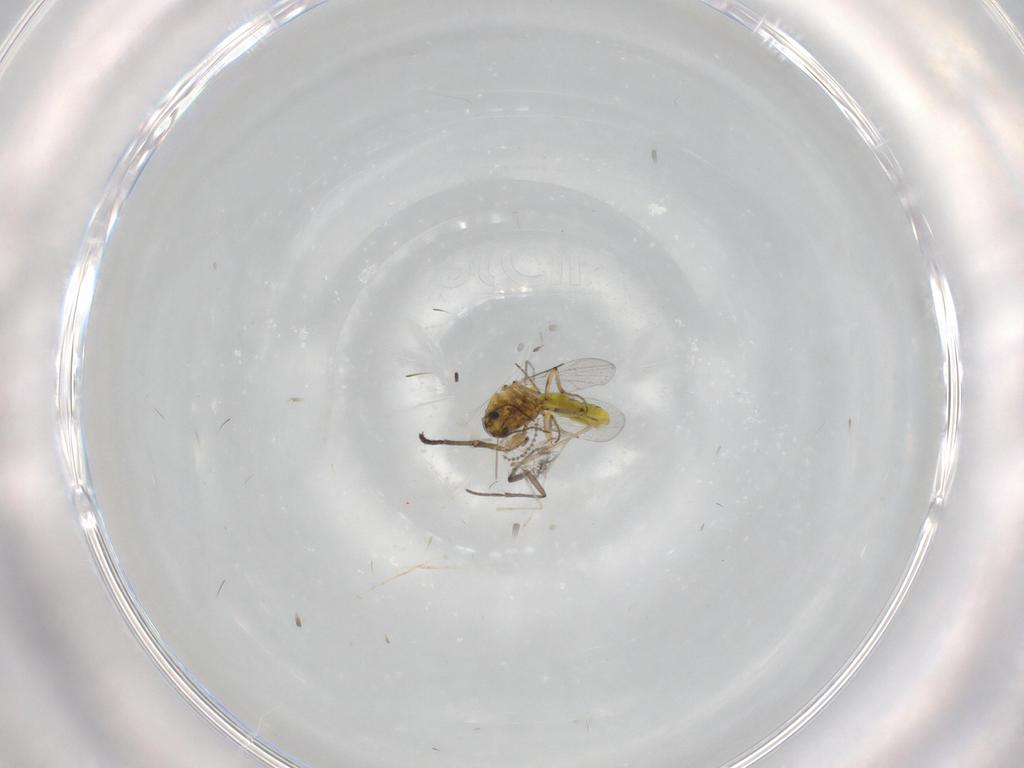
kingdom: Animalia
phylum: Arthropoda
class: Insecta
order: Diptera
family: Ceratopogonidae
